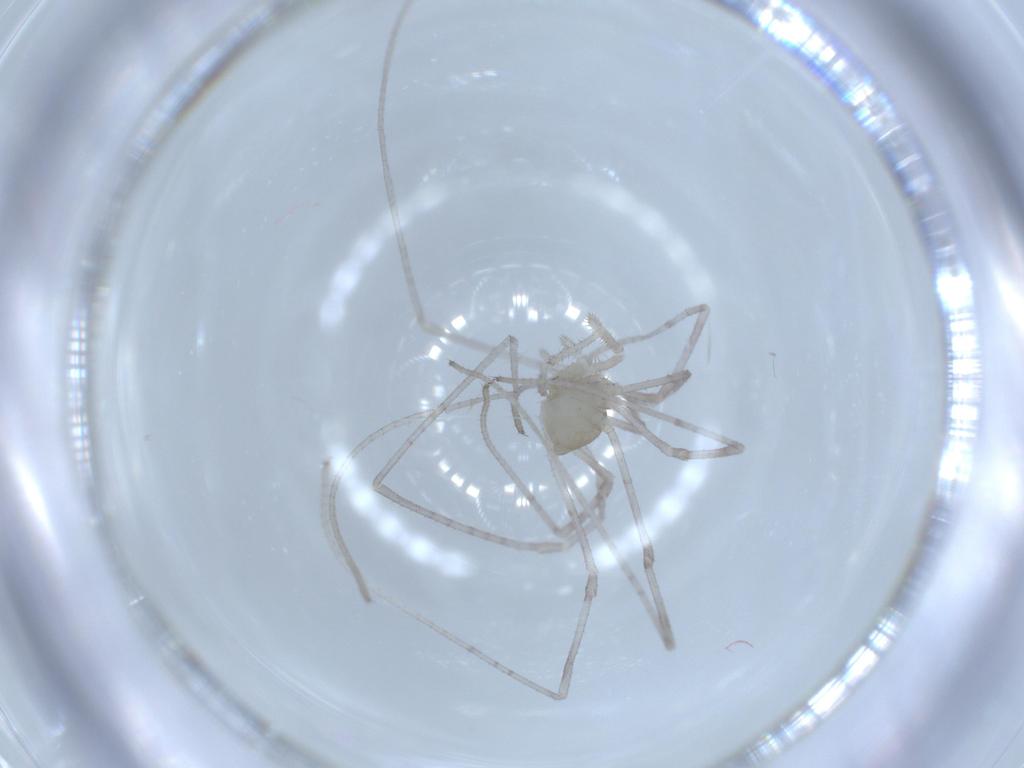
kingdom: Animalia
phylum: Arthropoda
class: Arachnida
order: Opiliones
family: Sclerosomatidae
